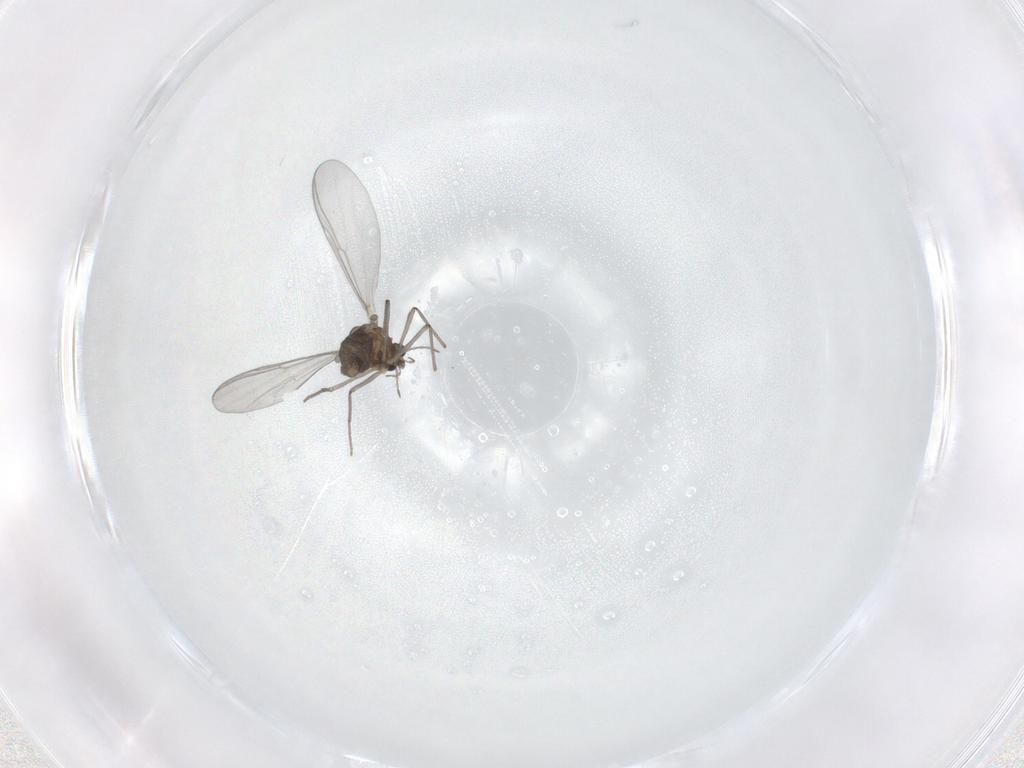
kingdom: Animalia
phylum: Arthropoda
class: Insecta
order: Diptera
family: Chironomidae
